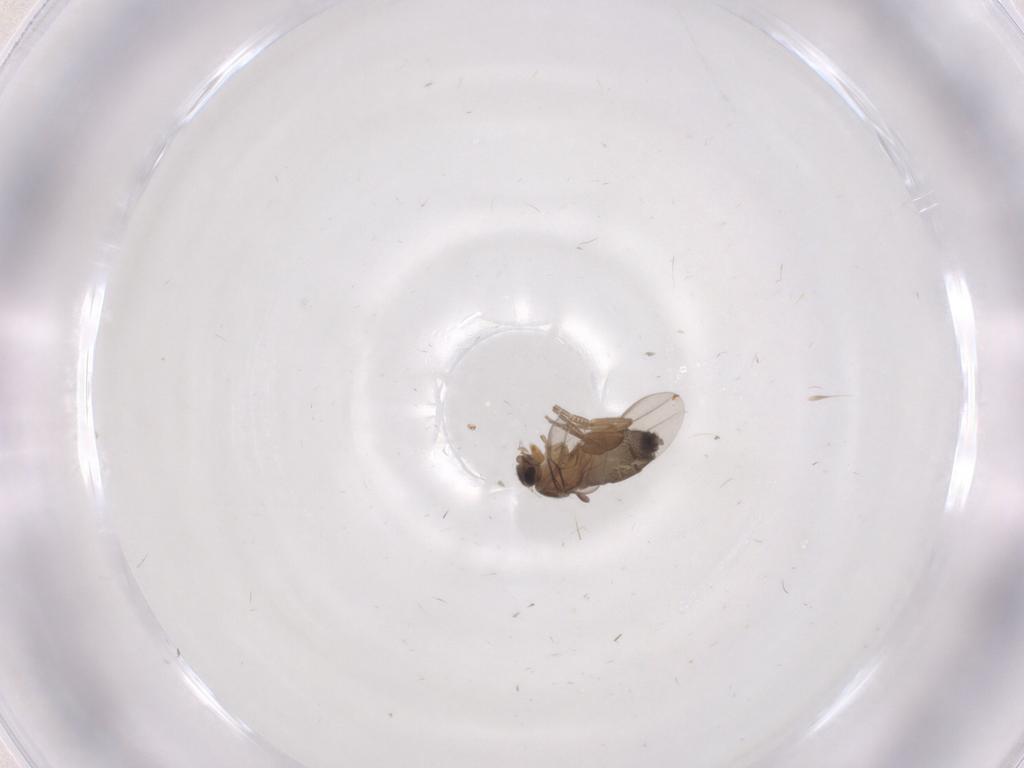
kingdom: Animalia
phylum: Arthropoda
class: Insecta
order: Diptera
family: Phoridae
